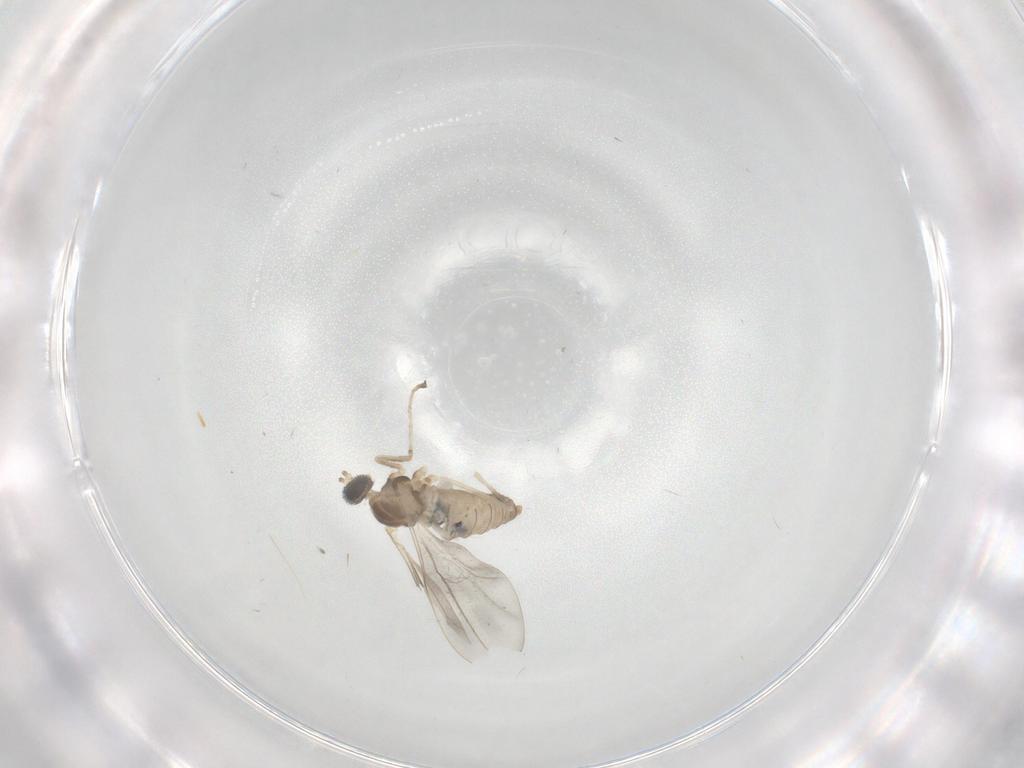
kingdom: Animalia
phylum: Arthropoda
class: Insecta
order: Diptera
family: Cecidomyiidae
